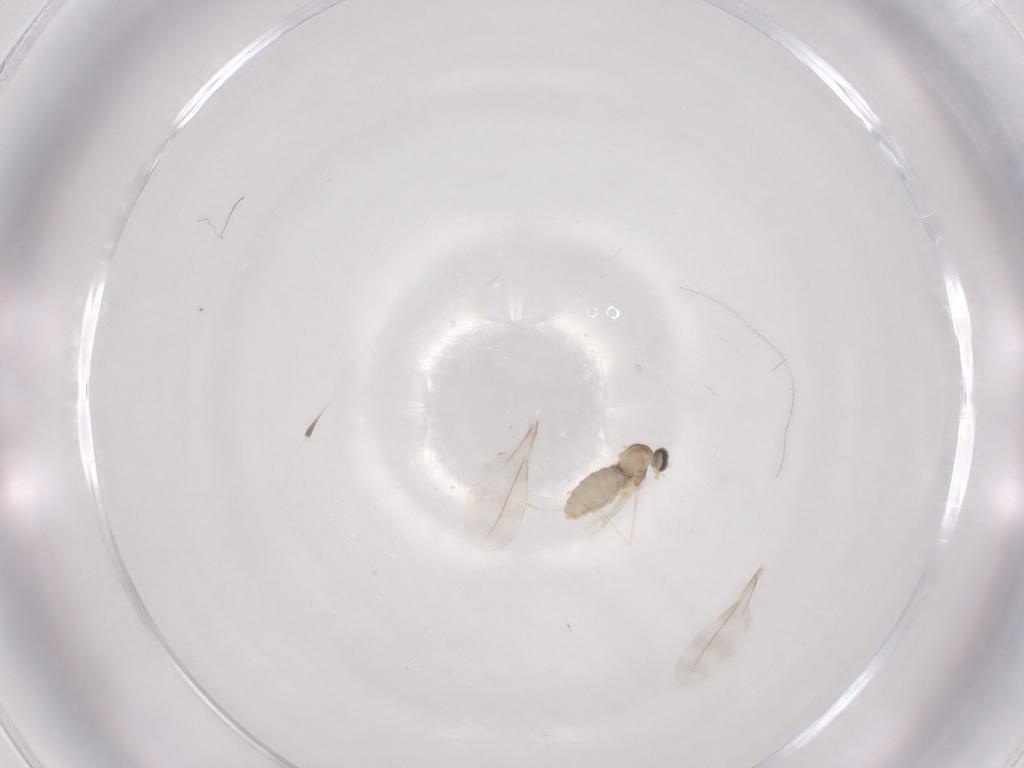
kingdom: Animalia
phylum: Arthropoda
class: Insecta
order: Diptera
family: Cecidomyiidae
